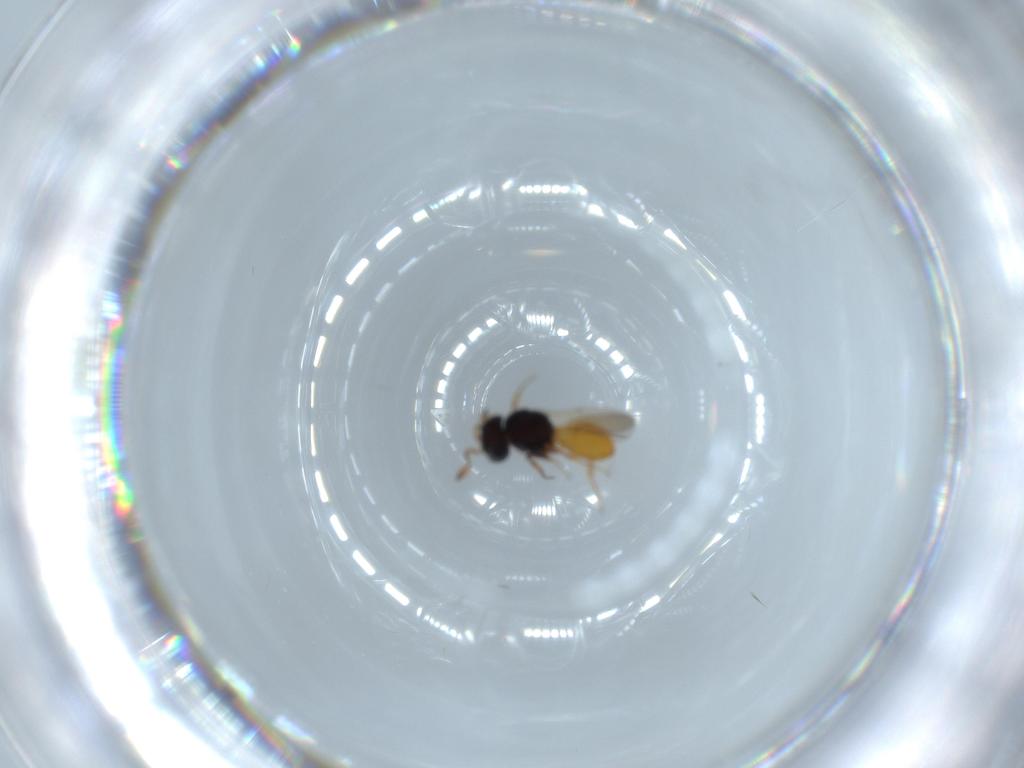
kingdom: Animalia
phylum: Arthropoda
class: Insecta
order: Hymenoptera
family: Scelionidae
